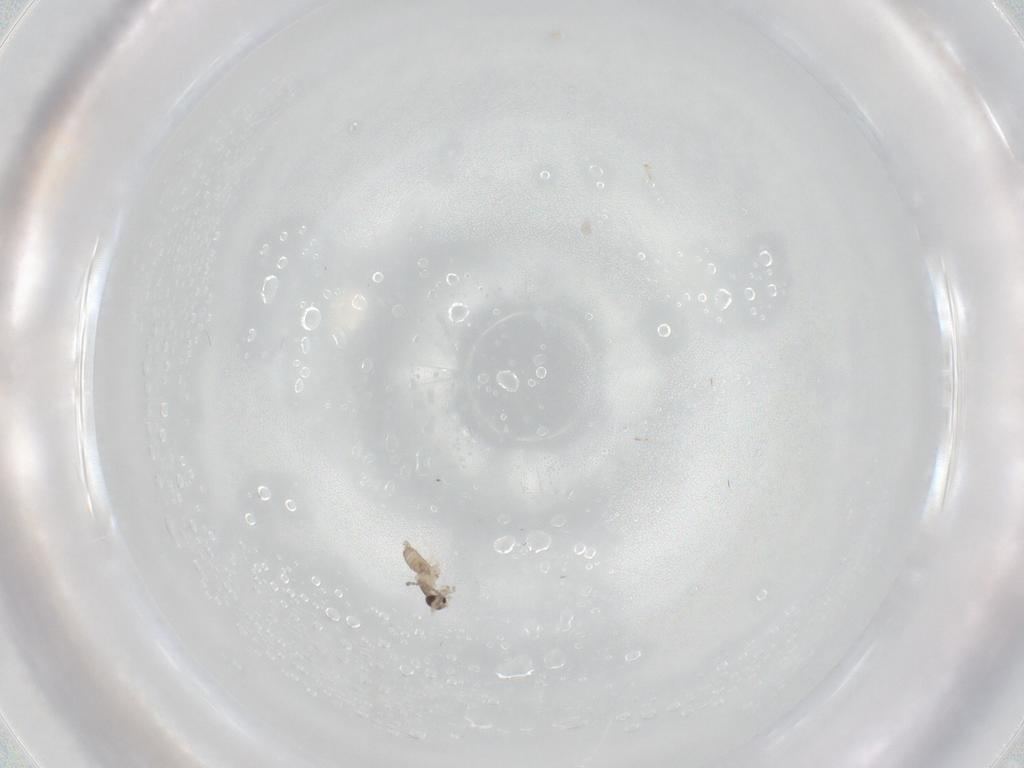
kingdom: Animalia
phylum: Arthropoda
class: Insecta
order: Diptera
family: Cecidomyiidae
